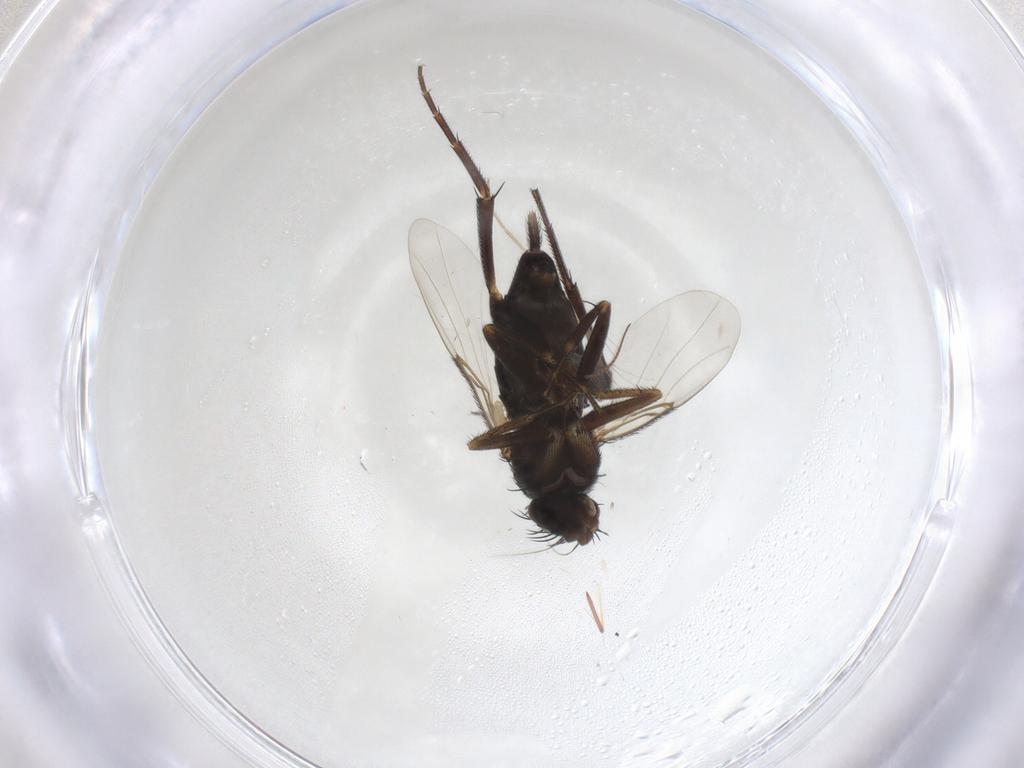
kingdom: Animalia
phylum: Arthropoda
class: Insecta
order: Diptera
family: Phoridae
